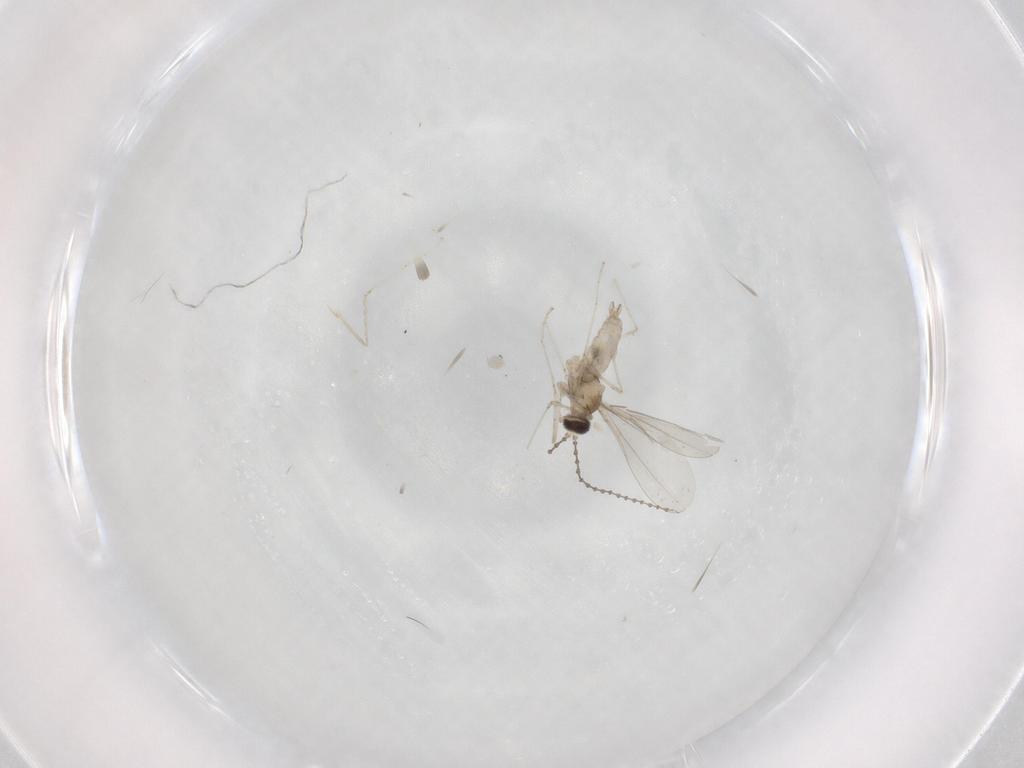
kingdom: Animalia
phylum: Arthropoda
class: Insecta
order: Diptera
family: Cecidomyiidae
